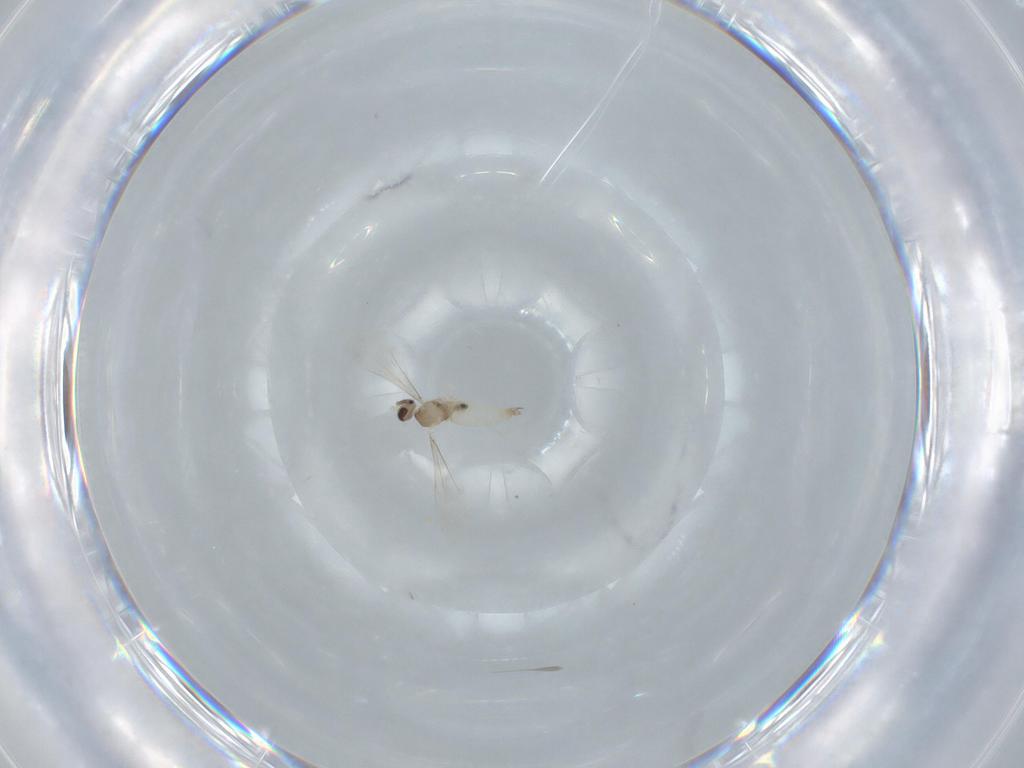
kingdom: Animalia
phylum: Arthropoda
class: Insecta
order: Diptera
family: Cecidomyiidae
